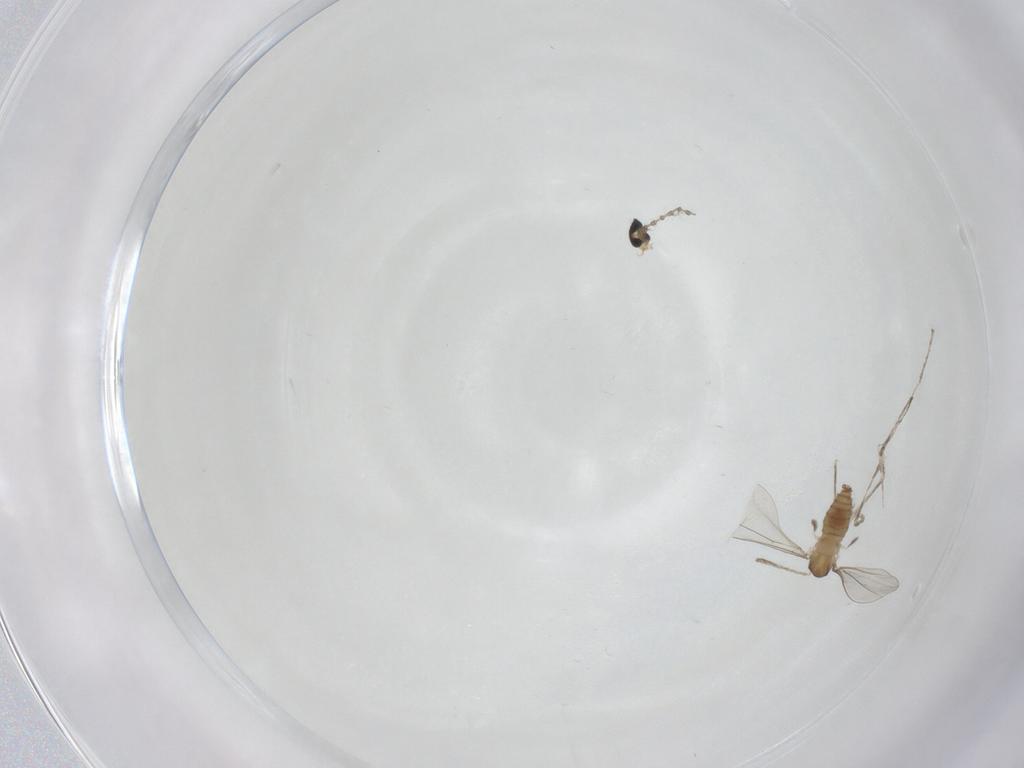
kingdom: Animalia
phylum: Arthropoda
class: Insecta
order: Diptera
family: Cecidomyiidae
